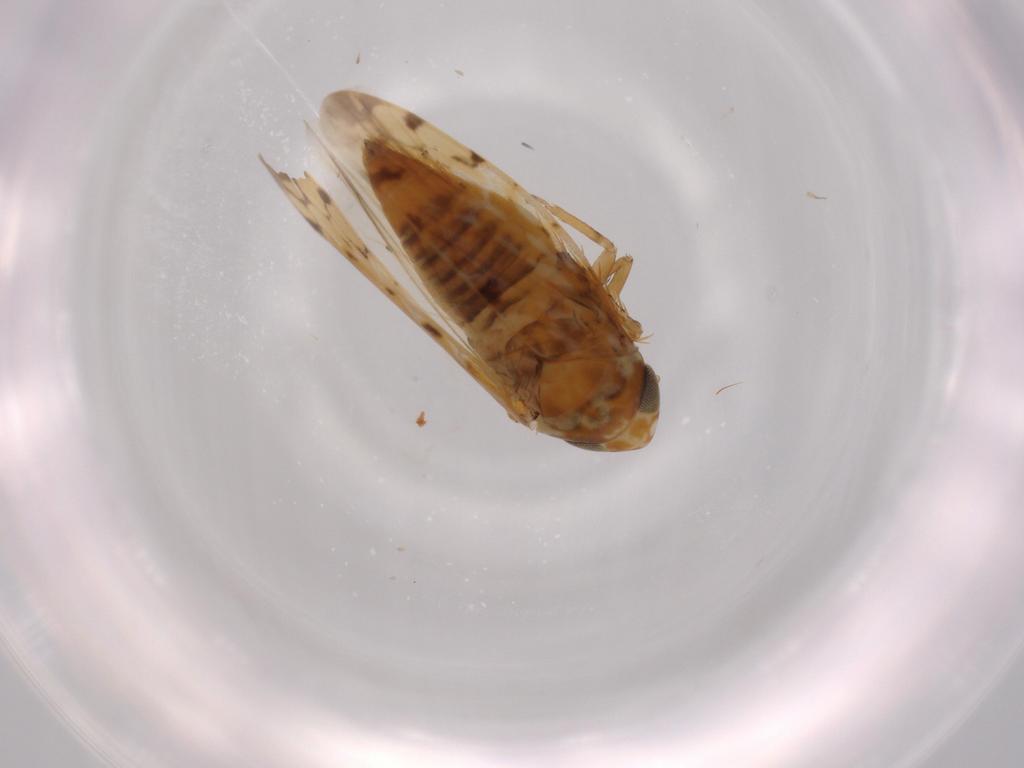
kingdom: Animalia
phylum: Arthropoda
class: Insecta
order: Hemiptera
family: Cicadellidae
